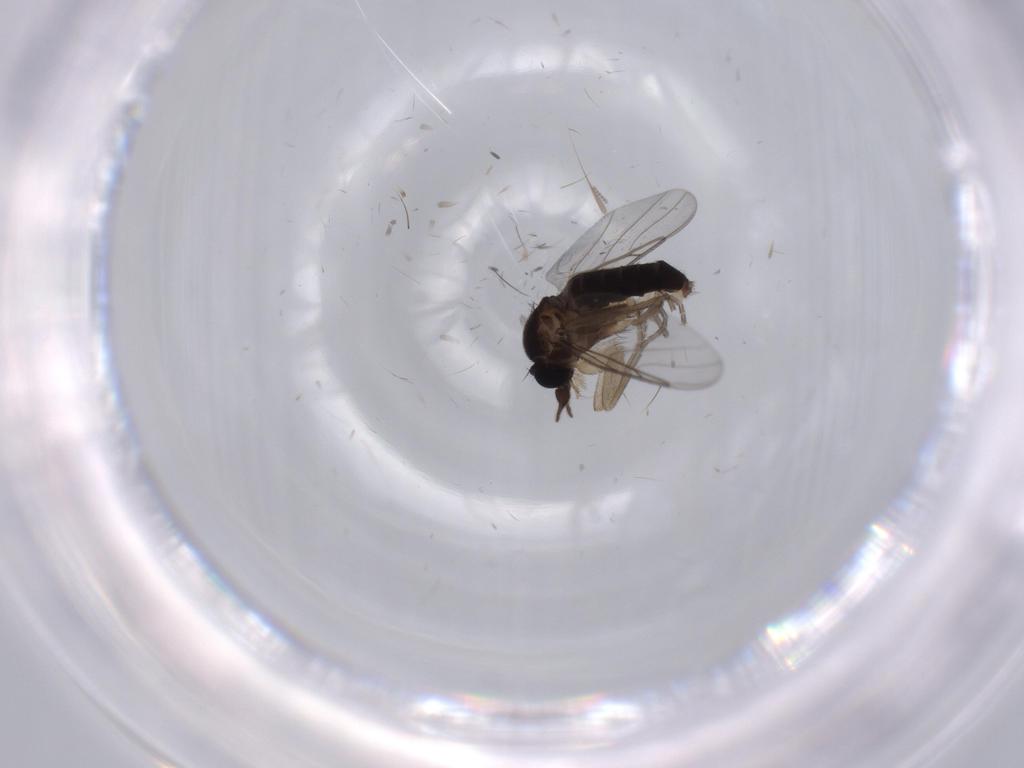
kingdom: Animalia
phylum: Arthropoda
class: Insecta
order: Diptera
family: Cecidomyiidae
